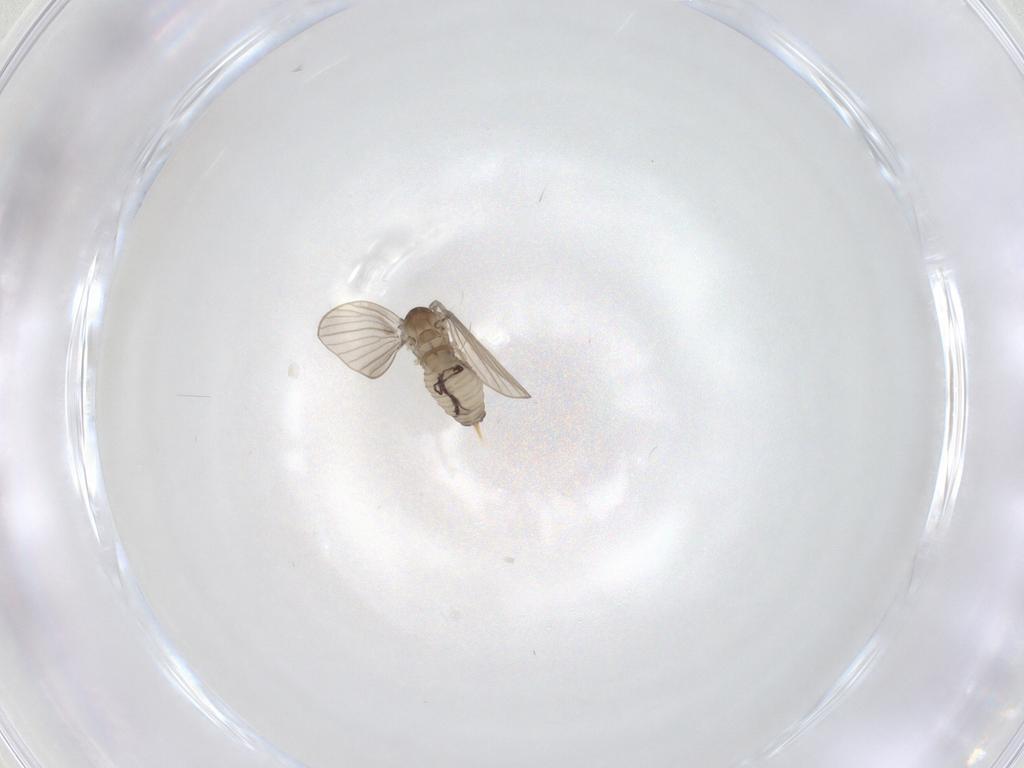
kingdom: Animalia
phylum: Arthropoda
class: Insecta
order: Diptera
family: Psychodidae
